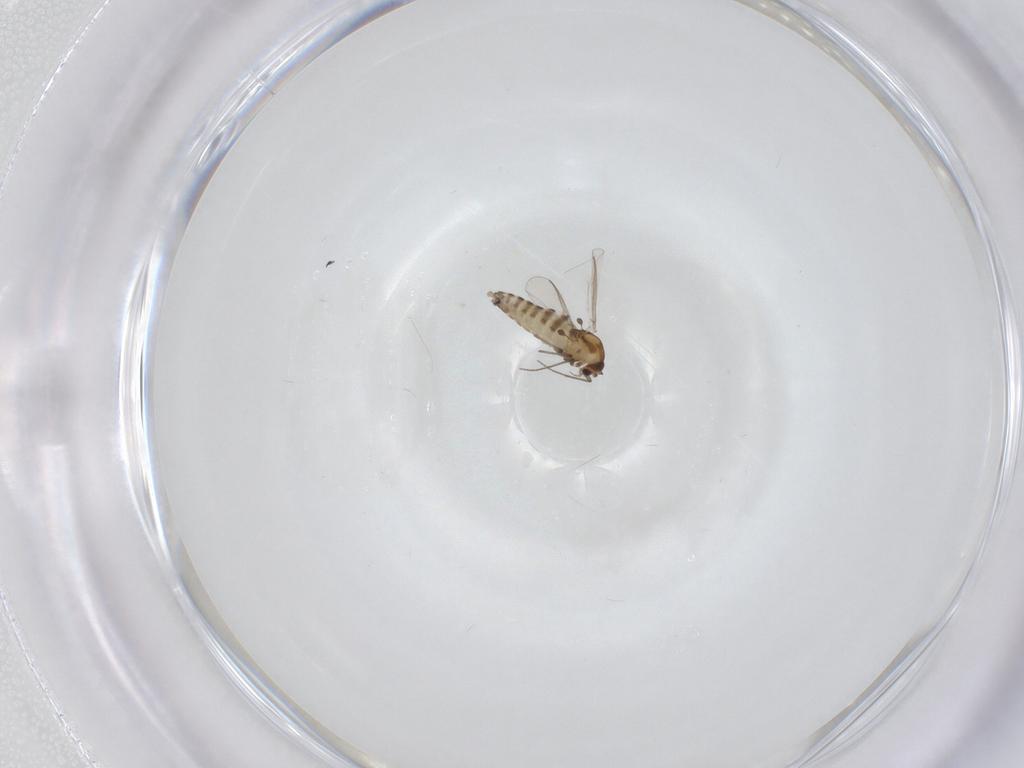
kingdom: Animalia
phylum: Arthropoda
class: Insecta
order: Diptera
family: Chironomidae
